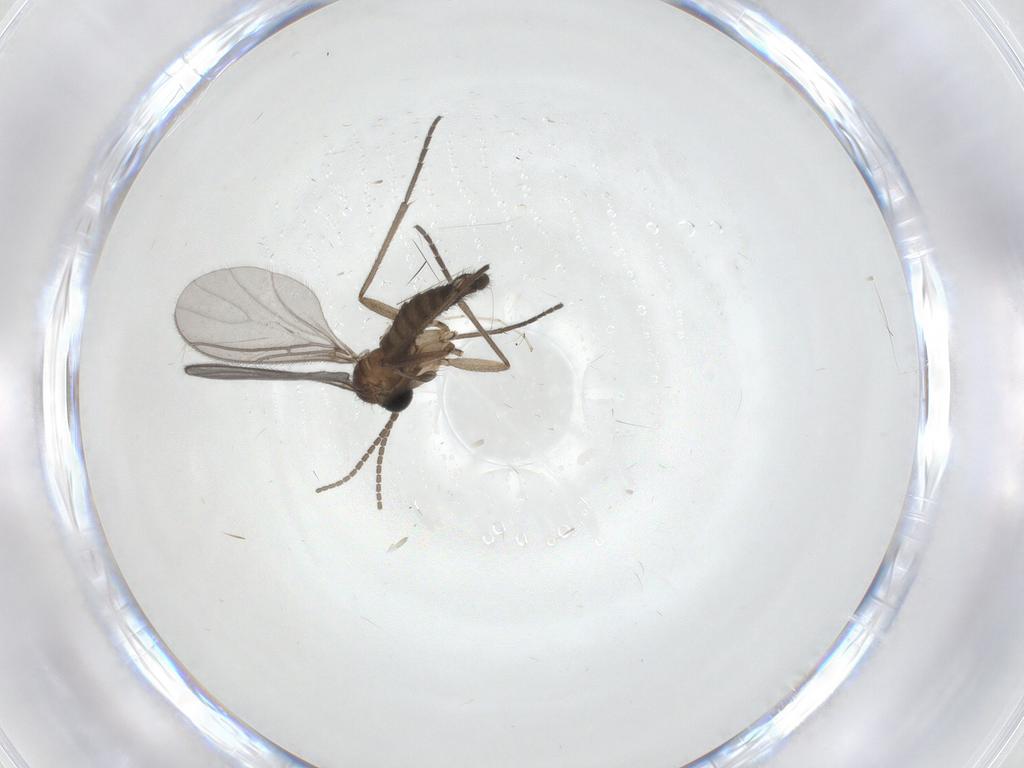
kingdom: Animalia
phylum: Arthropoda
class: Insecta
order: Diptera
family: Sciaridae
